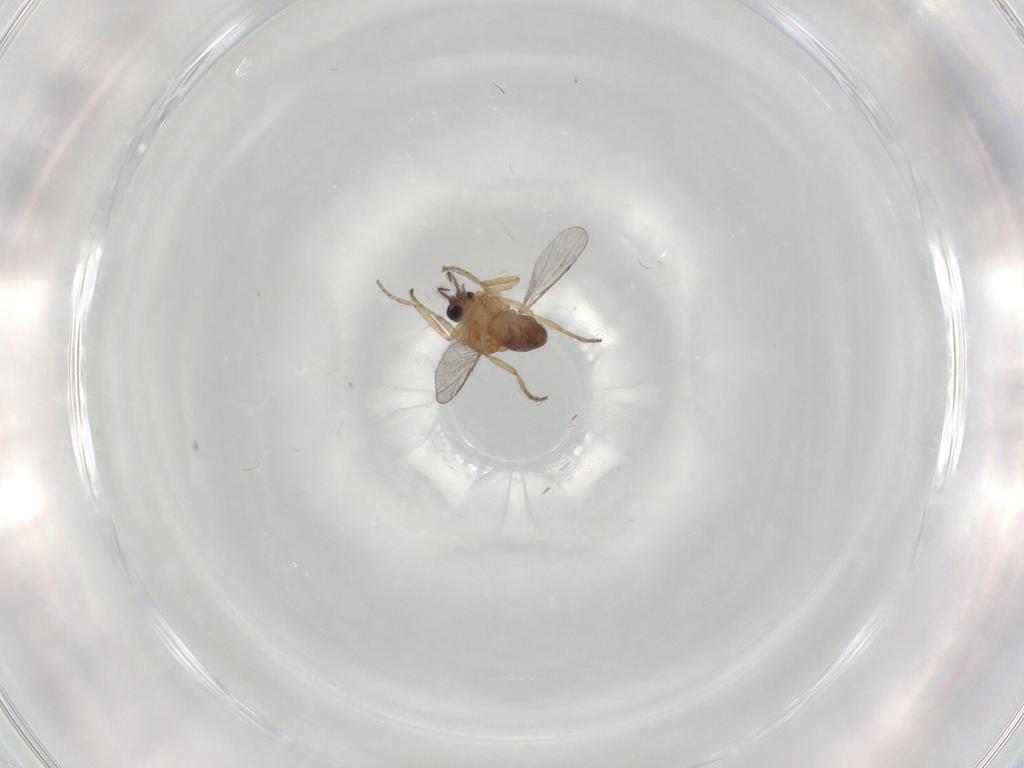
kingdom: Animalia
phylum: Arthropoda
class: Insecta
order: Diptera
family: Ceratopogonidae
